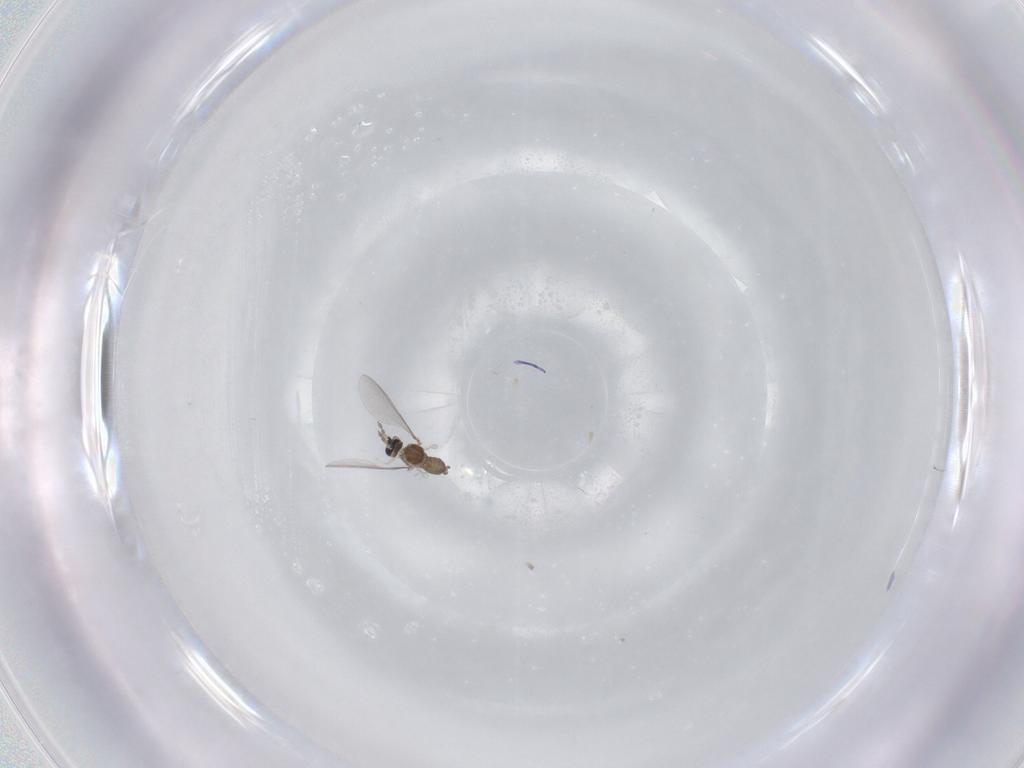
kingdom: Animalia
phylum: Arthropoda
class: Insecta
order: Diptera
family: Cecidomyiidae
